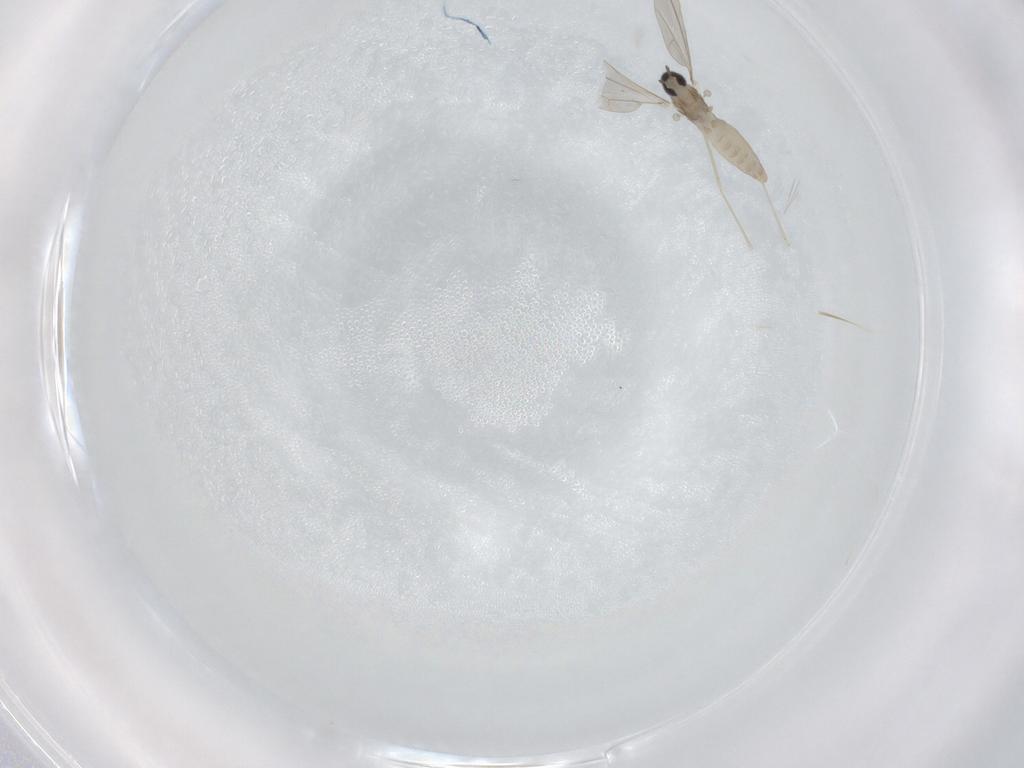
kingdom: Animalia
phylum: Arthropoda
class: Insecta
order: Diptera
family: Cecidomyiidae
